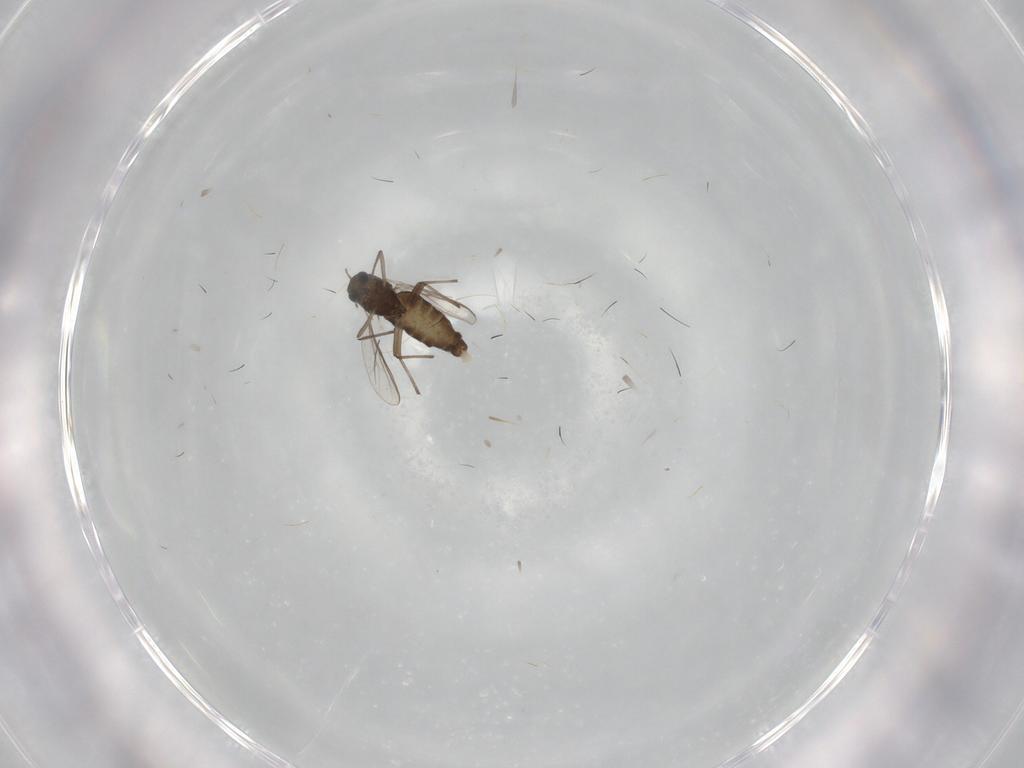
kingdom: Animalia
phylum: Arthropoda
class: Insecta
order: Diptera
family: Chironomidae
